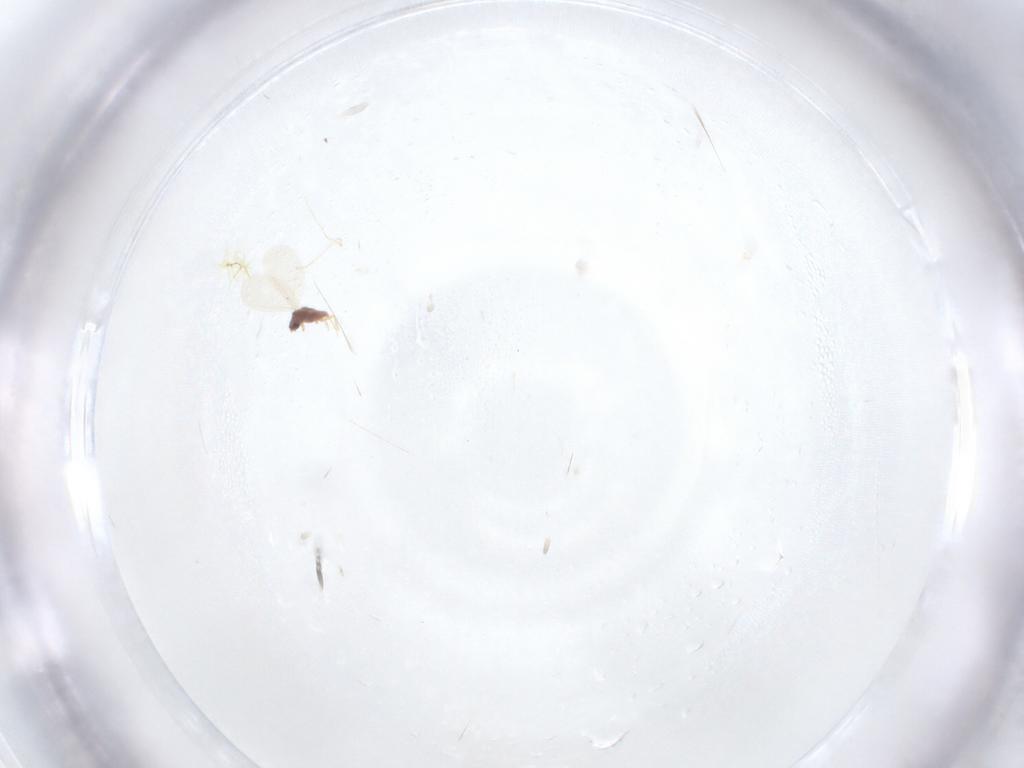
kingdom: Animalia
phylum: Arthropoda
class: Insecta
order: Hemiptera
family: Diaspididae
